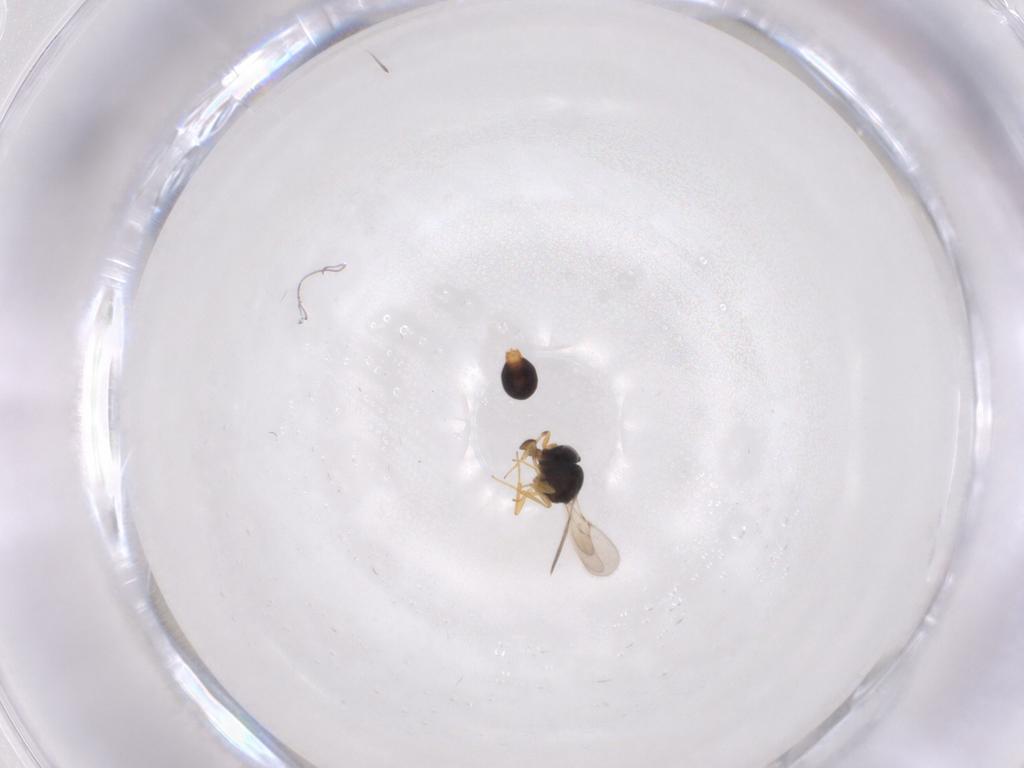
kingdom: Animalia
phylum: Arthropoda
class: Insecta
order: Hymenoptera
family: Scelionidae
